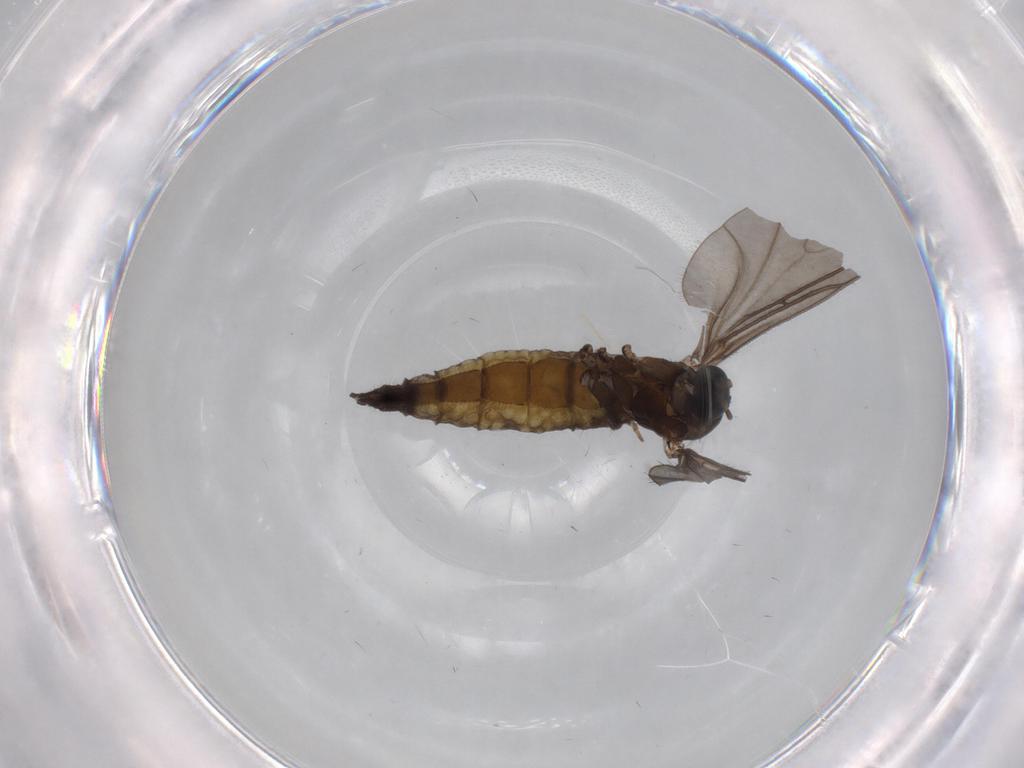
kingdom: Animalia
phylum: Arthropoda
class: Insecta
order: Diptera
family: Sciaridae
